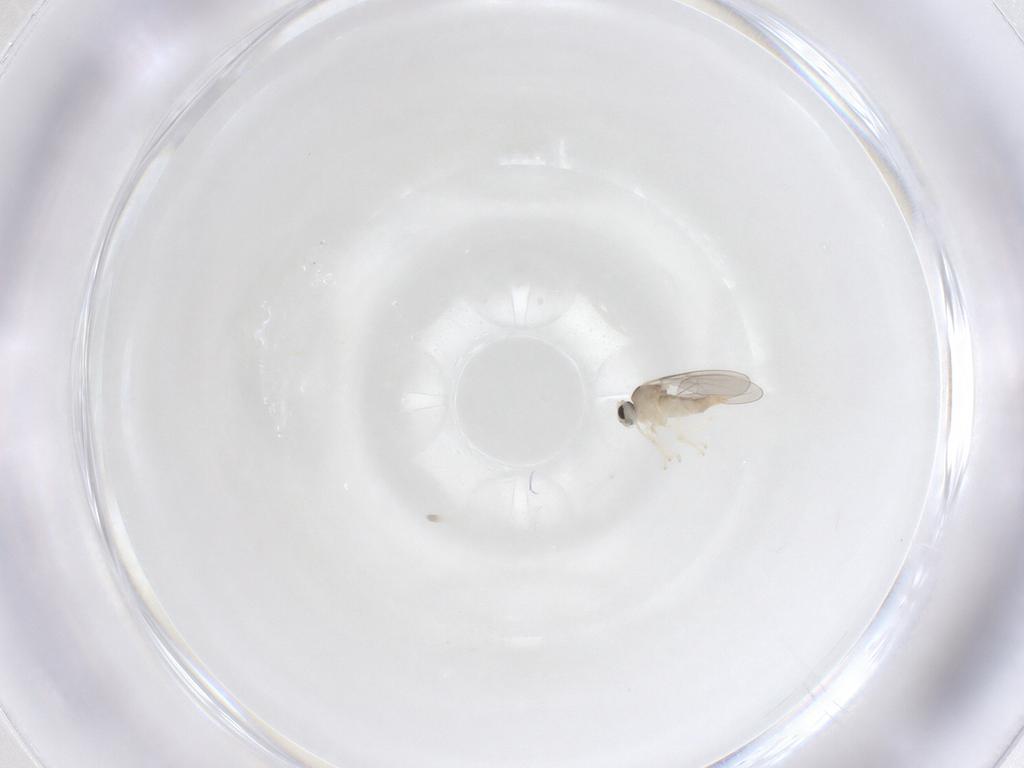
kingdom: Animalia
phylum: Arthropoda
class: Insecta
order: Diptera
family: Cecidomyiidae
